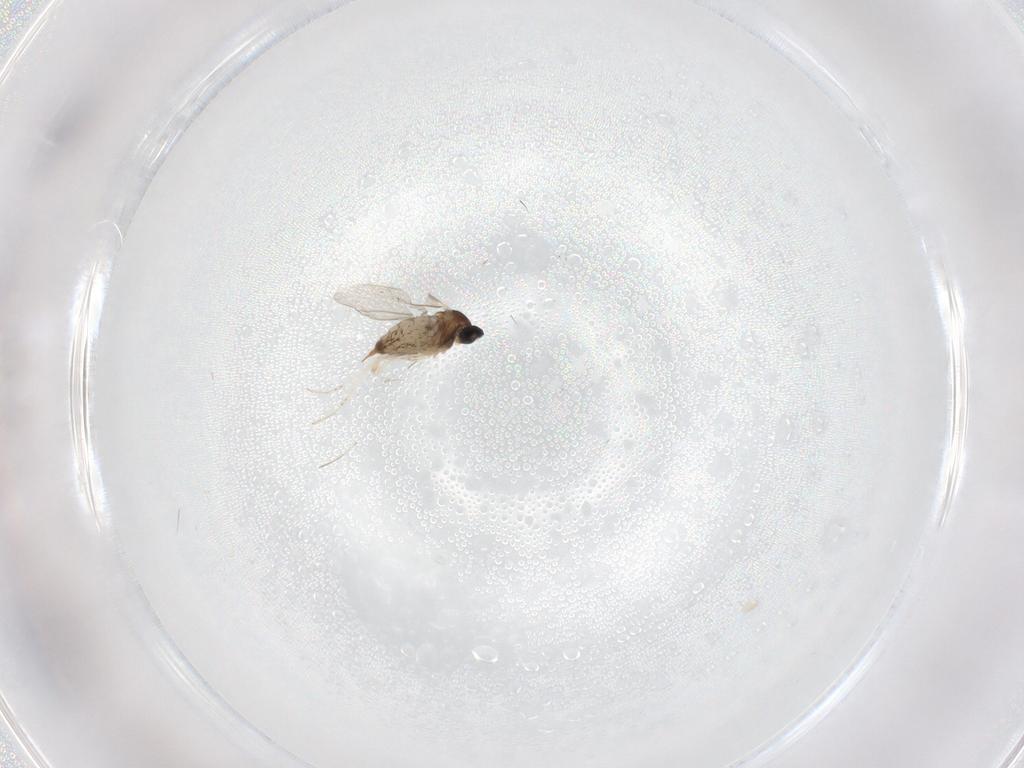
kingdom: Animalia
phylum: Arthropoda
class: Insecta
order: Diptera
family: Cecidomyiidae
